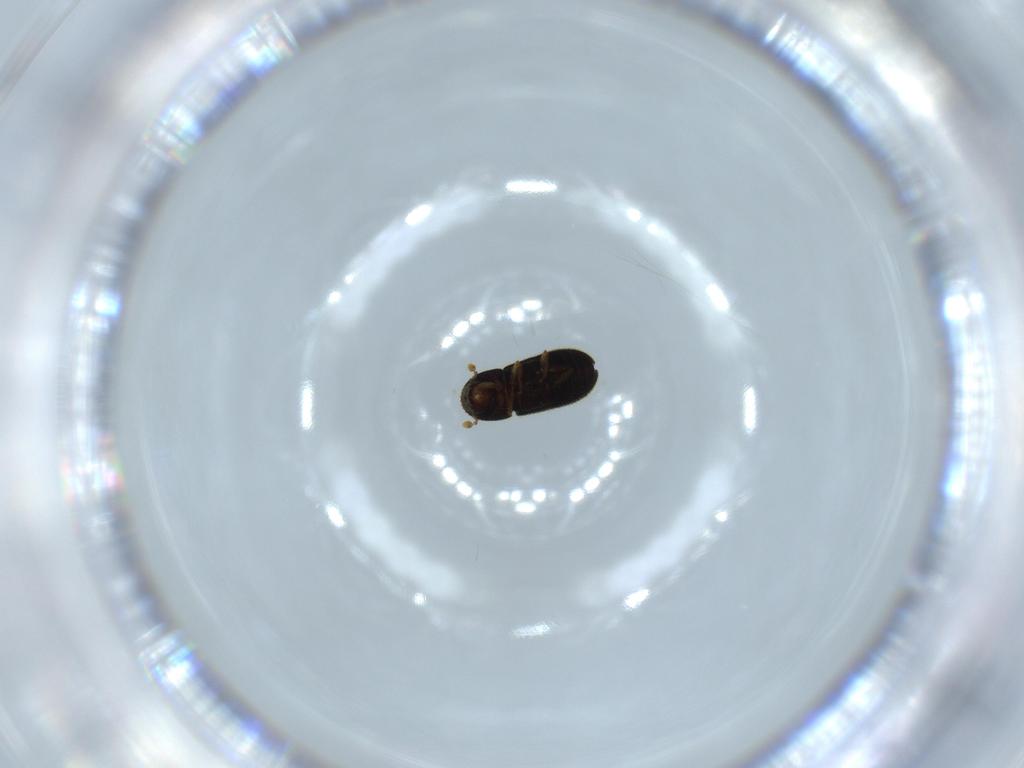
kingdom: Animalia
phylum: Arthropoda
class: Insecta
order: Coleoptera
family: Curculionidae
